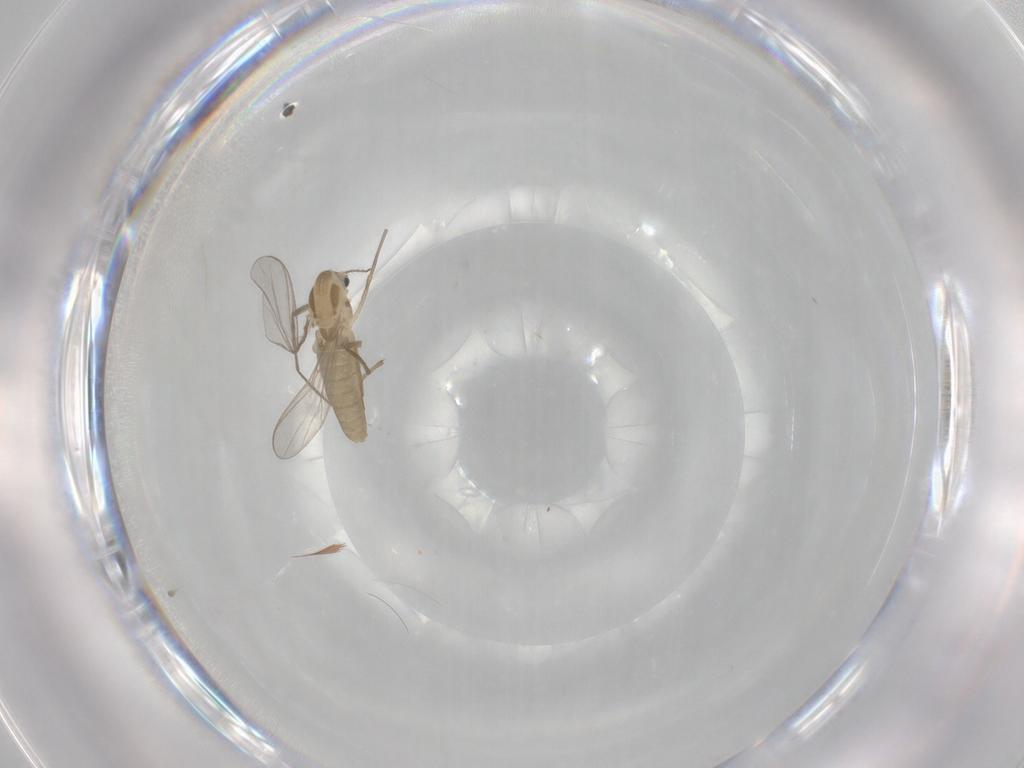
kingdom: Animalia
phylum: Arthropoda
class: Insecta
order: Diptera
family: Chironomidae
